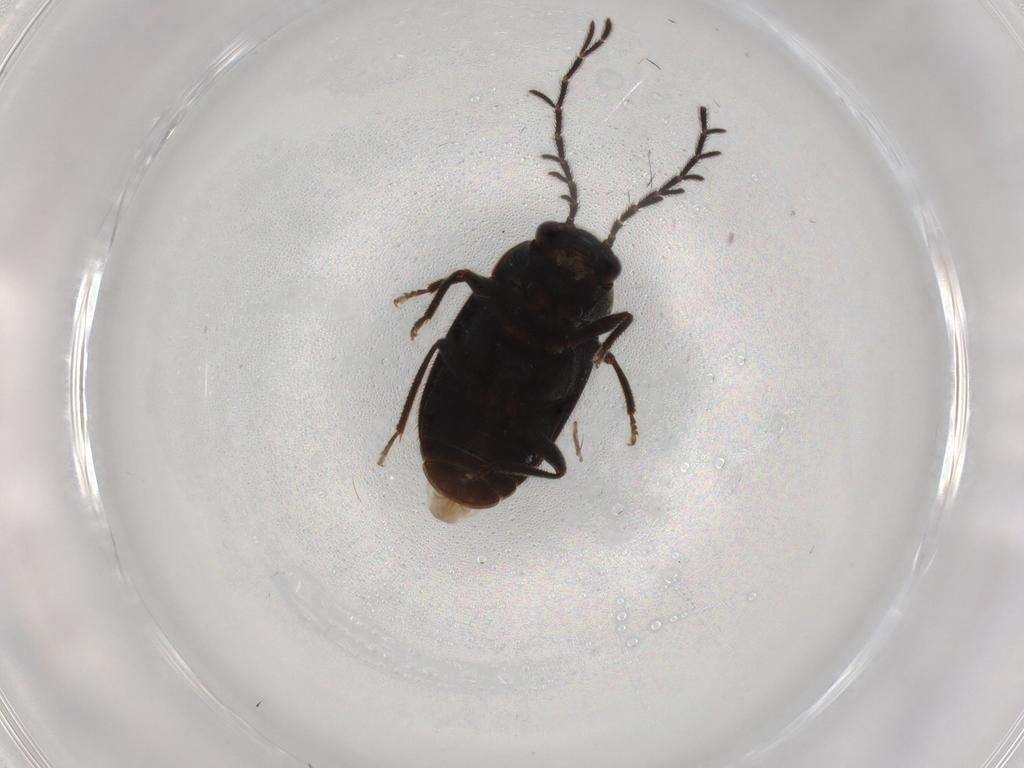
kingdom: Animalia
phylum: Arthropoda
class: Insecta
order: Coleoptera
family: Ptilodactylidae
